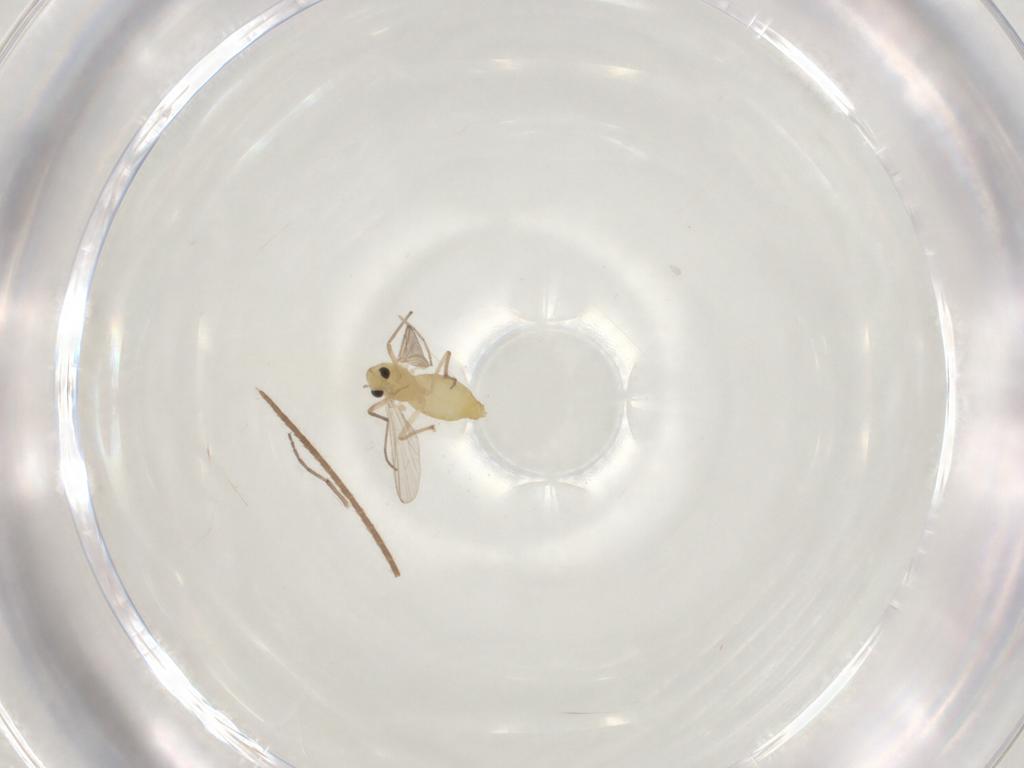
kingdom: Animalia
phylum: Arthropoda
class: Insecta
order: Diptera
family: Chironomidae
